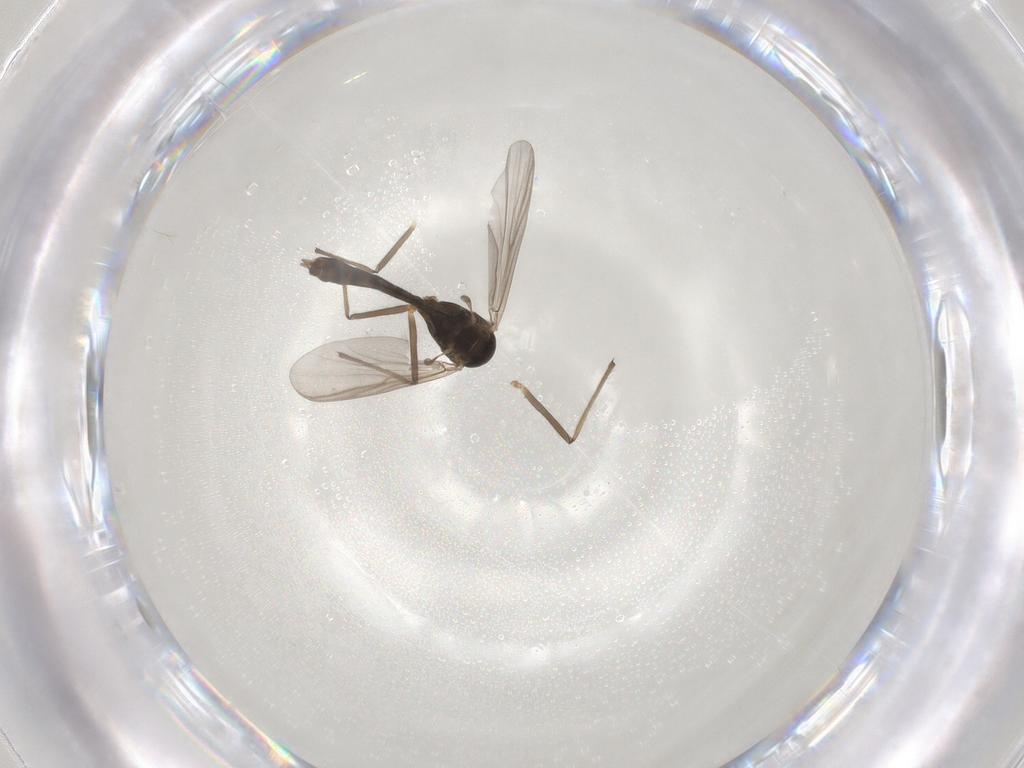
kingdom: Animalia
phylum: Arthropoda
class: Insecta
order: Diptera
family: Chironomidae
